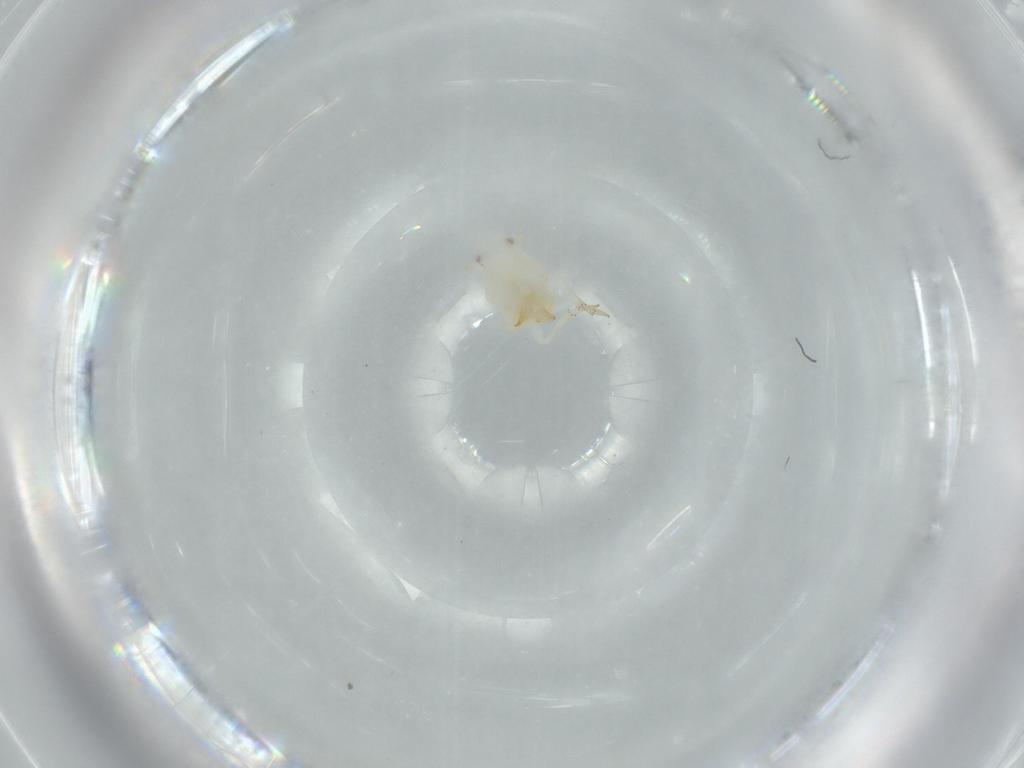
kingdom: Animalia
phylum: Arthropoda
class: Insecta
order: Hemiptera
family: Flatidae
